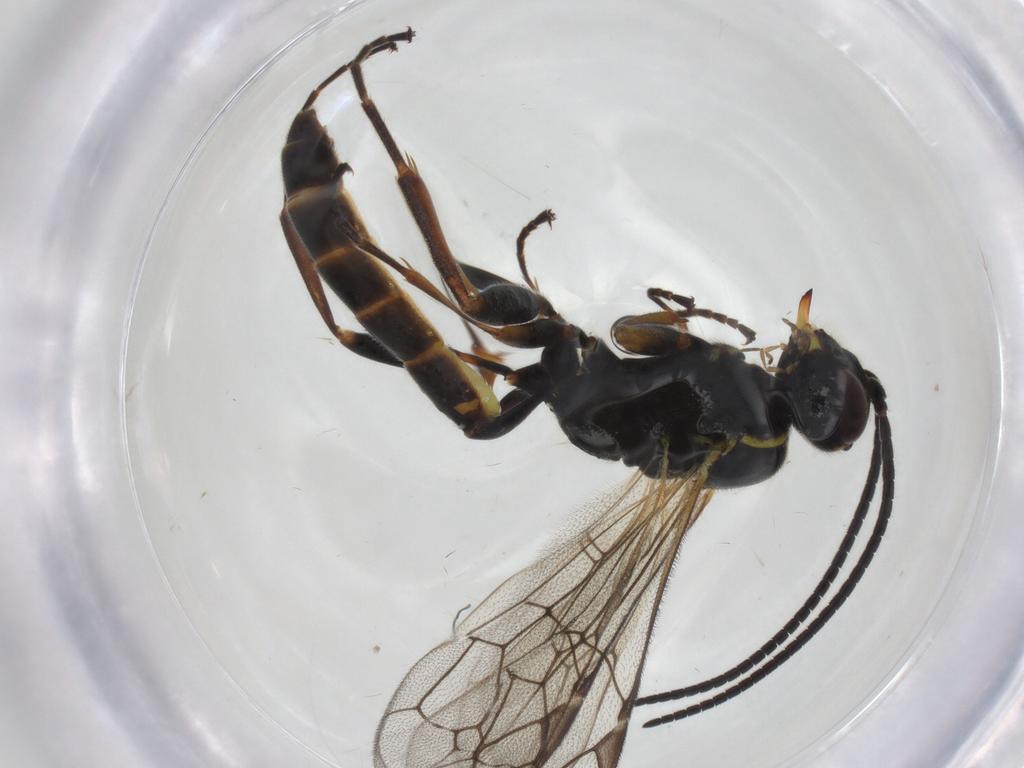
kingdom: Animalia
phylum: Arthropoda
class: Insecta
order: Hymenoptera
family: Ichneumonidae
